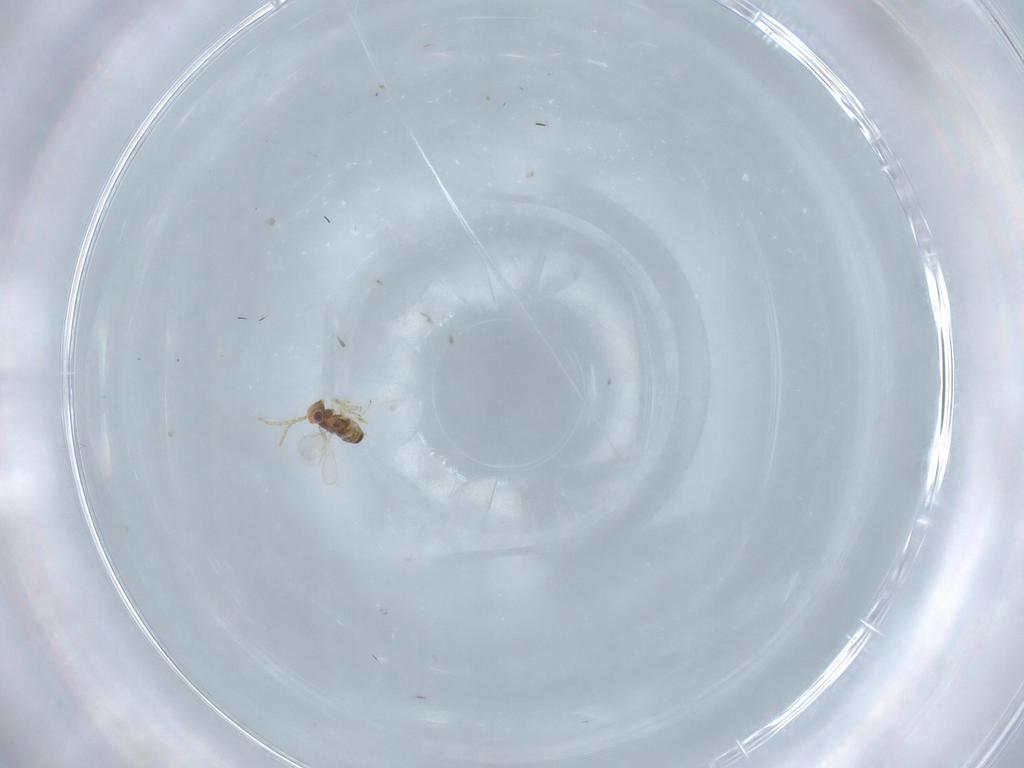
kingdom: Animalia
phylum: Arthropoda
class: Insecta
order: Hymenoptera
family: Aphelinidae
